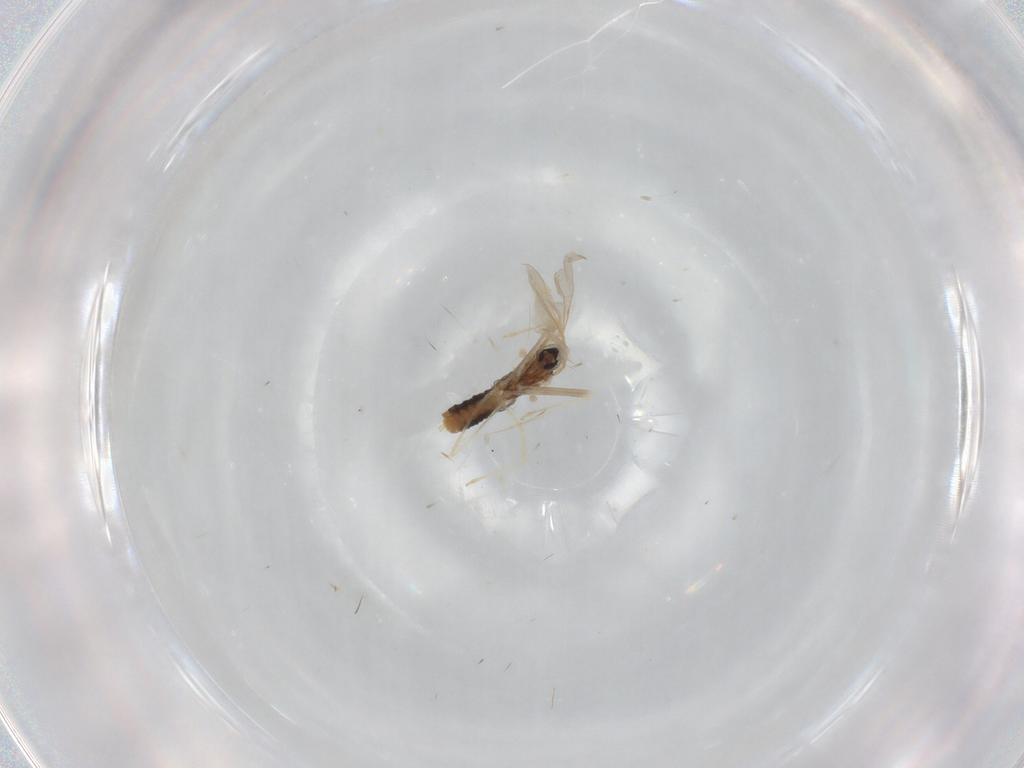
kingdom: Animalia
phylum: Arthropoda
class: Insecta
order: Diptera
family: Cecidomyiidae
